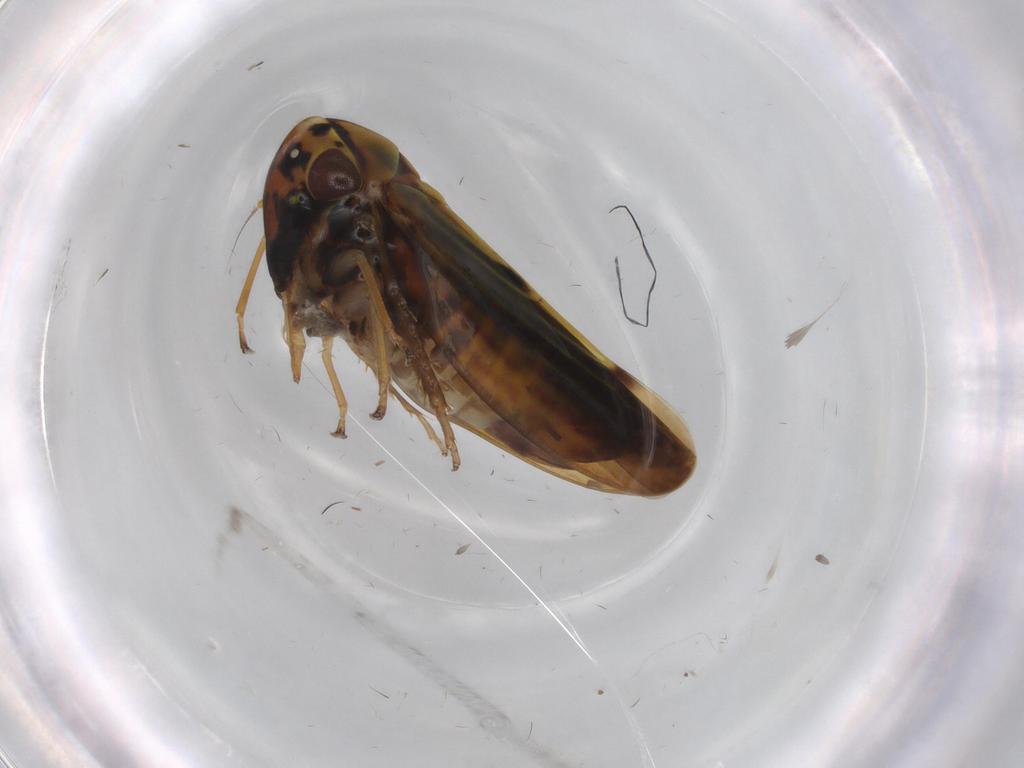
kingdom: Animalia
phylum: Arthropoda
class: Insecta
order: Hemiptera
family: Cicadellidae
